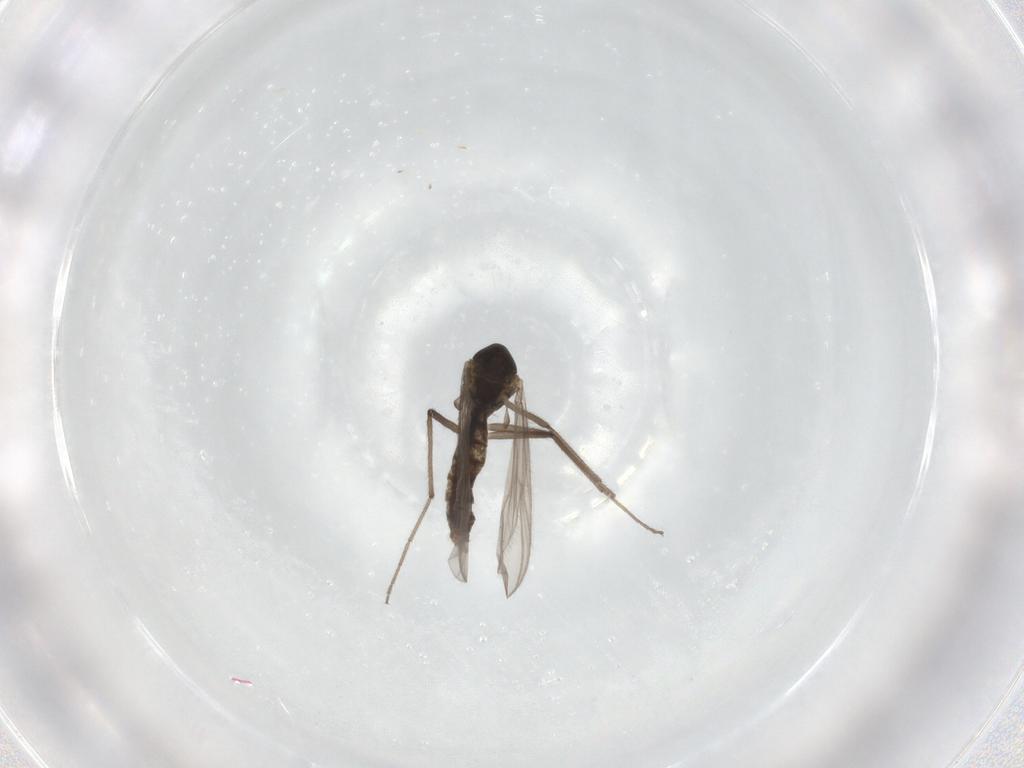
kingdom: Animalia
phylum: Arthropoda
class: Insecta
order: Diptera
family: Chironomidae
